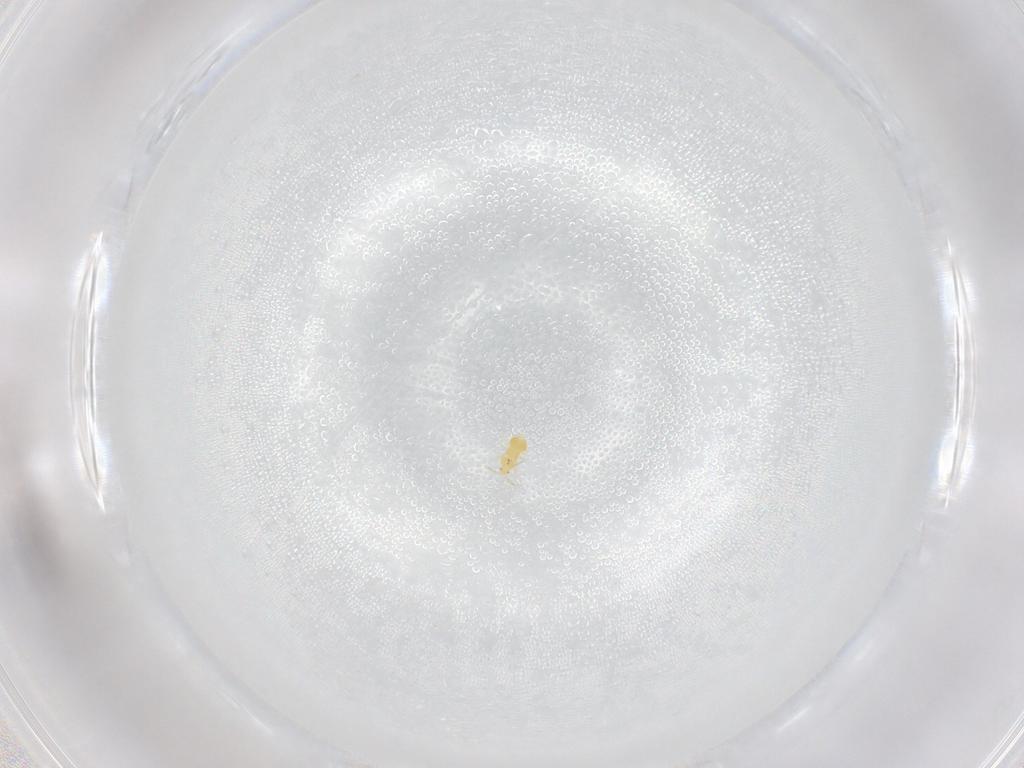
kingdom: Animalia
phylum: Arthropoda
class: Insecta
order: Thysanoptera
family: Thripidae
